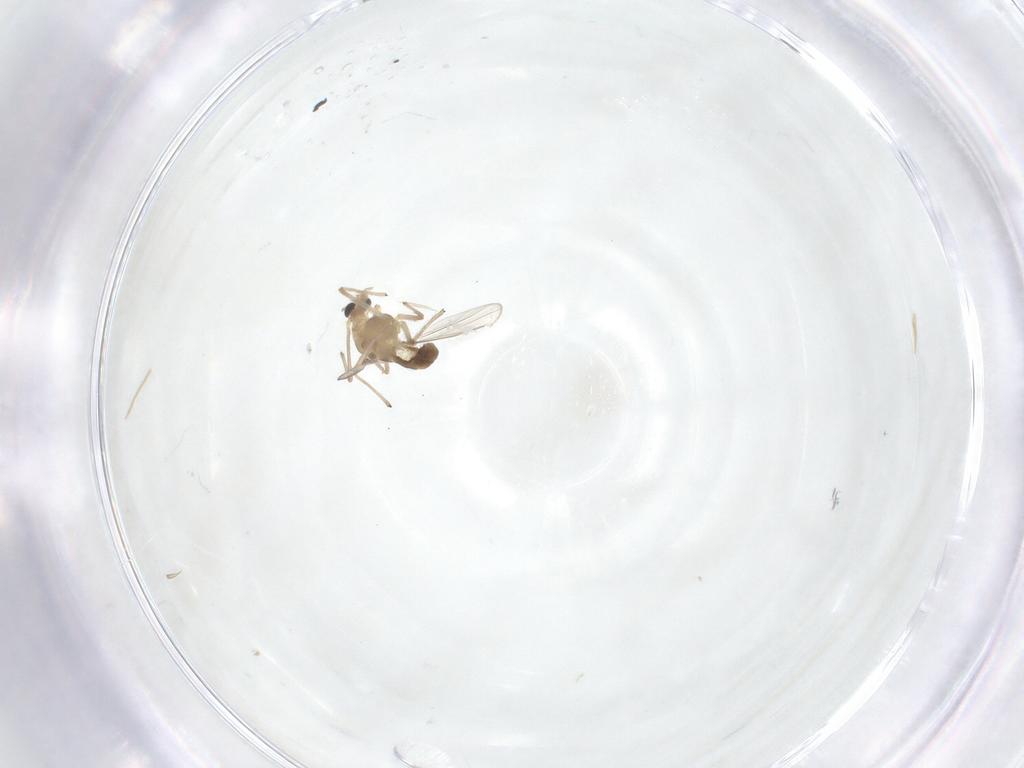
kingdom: Animalia
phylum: Arthropoda
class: Insecta
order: Diptera
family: Chironomidae
